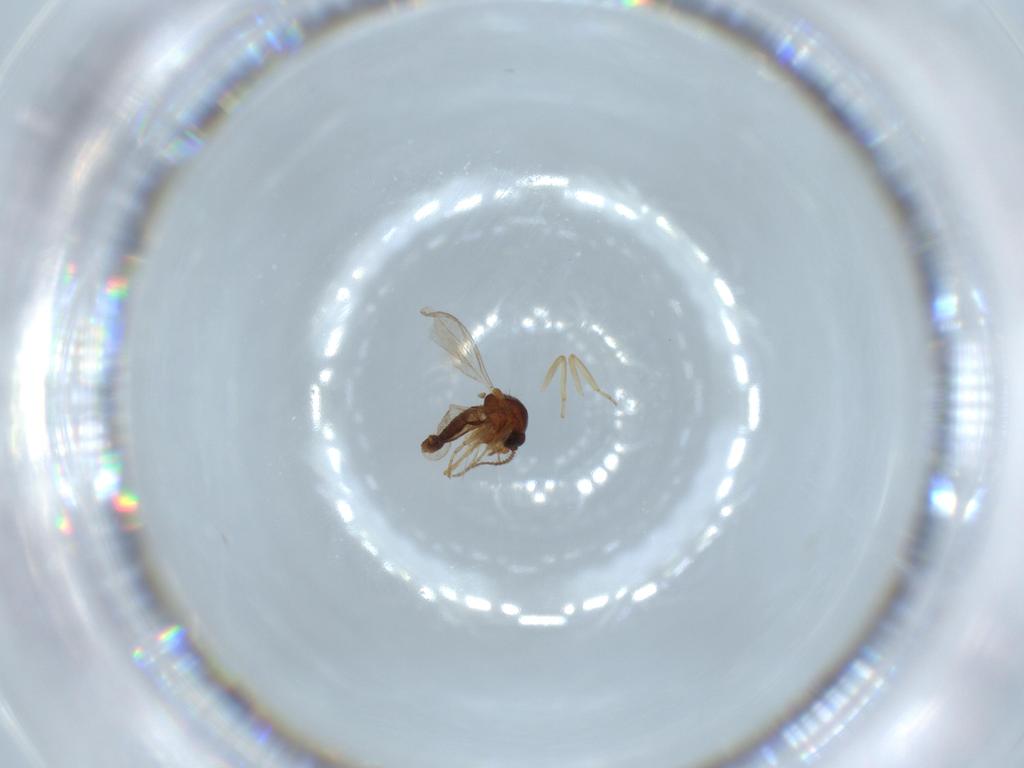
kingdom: Animalia
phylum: Arthropoda
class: Insecta
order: Diptera
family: Ceratopogonidae
